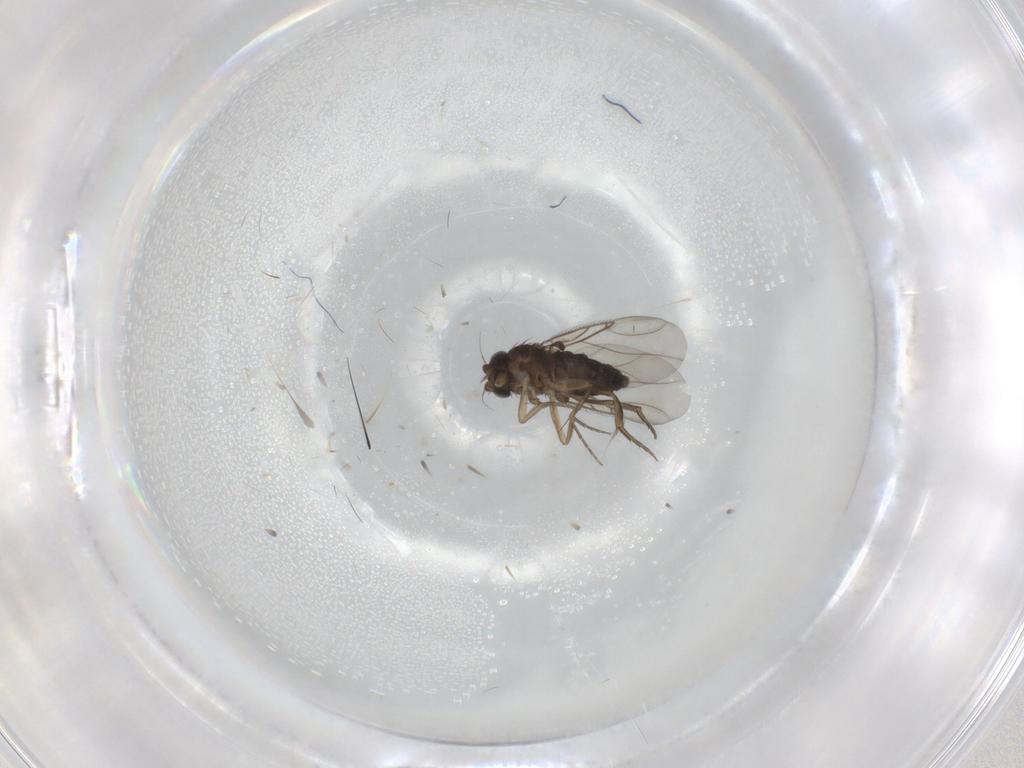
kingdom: Animalia
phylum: Arthropoda
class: Insecta
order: Diptera
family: Phoridae
